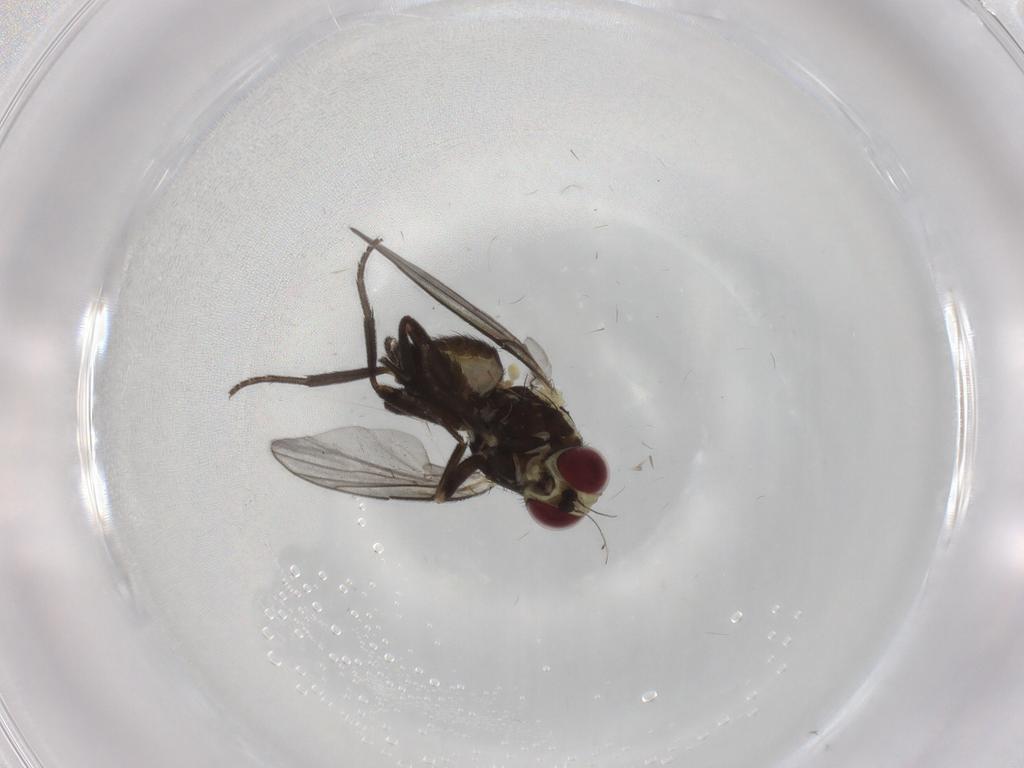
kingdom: Animalia
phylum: Arthropoda
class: Insecta
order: Diptera
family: Agromyzidae
